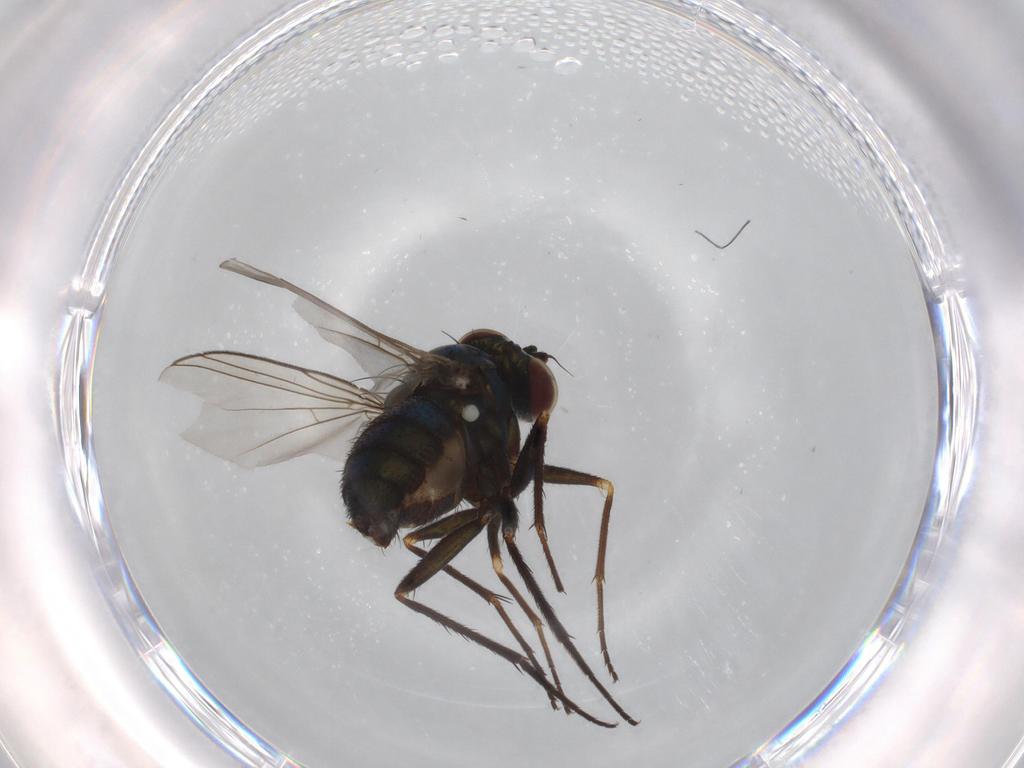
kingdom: Animalia
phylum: Arthropoda
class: Insecta
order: Diptera
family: Dolichopodidae
